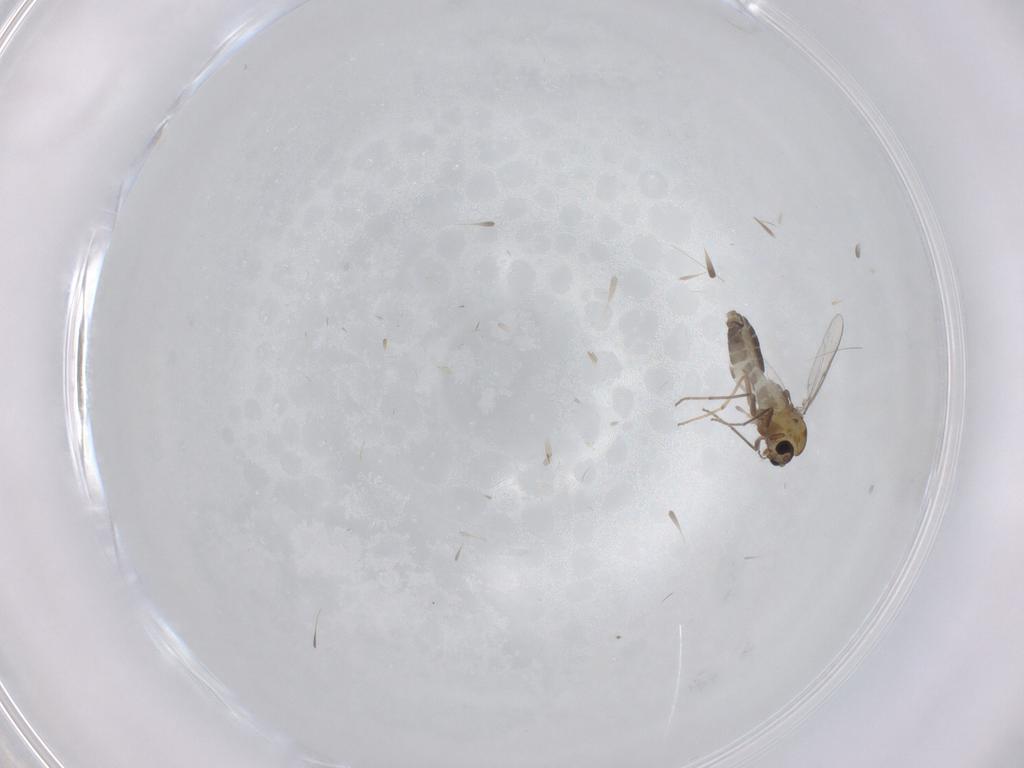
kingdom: Animalia
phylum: Arthropoda
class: Insecta
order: Diptera
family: Chironomidae
